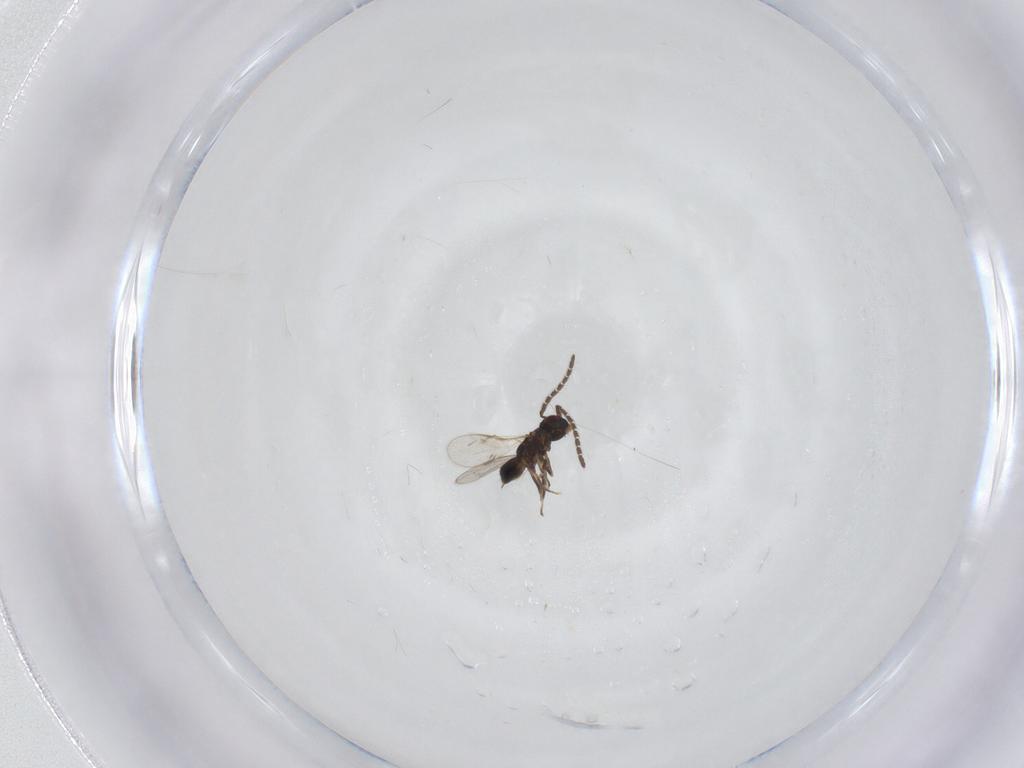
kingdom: Animalia
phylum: Arthropoda
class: Insecta
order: Hymenoptera
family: Encyrtidae
